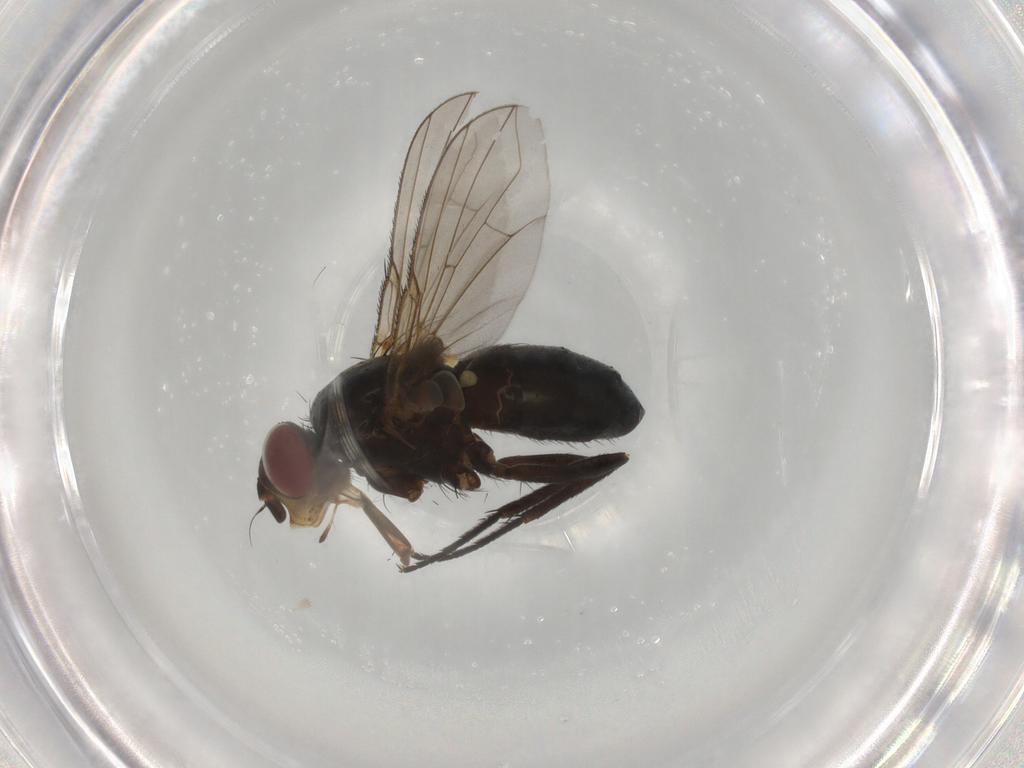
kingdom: Animalia
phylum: Arthropoda
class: Insecta
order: Diptera
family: Calliphoridae
